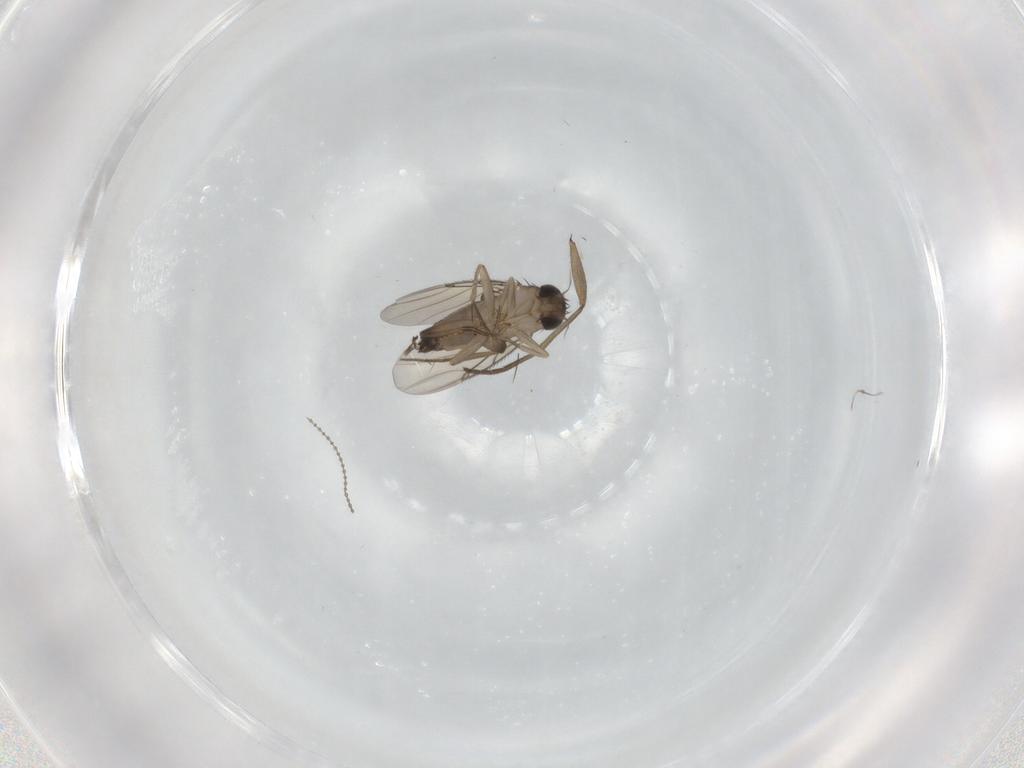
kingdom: Animalia
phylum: Arthropoda
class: Insecta
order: Diptera
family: Phoridae
